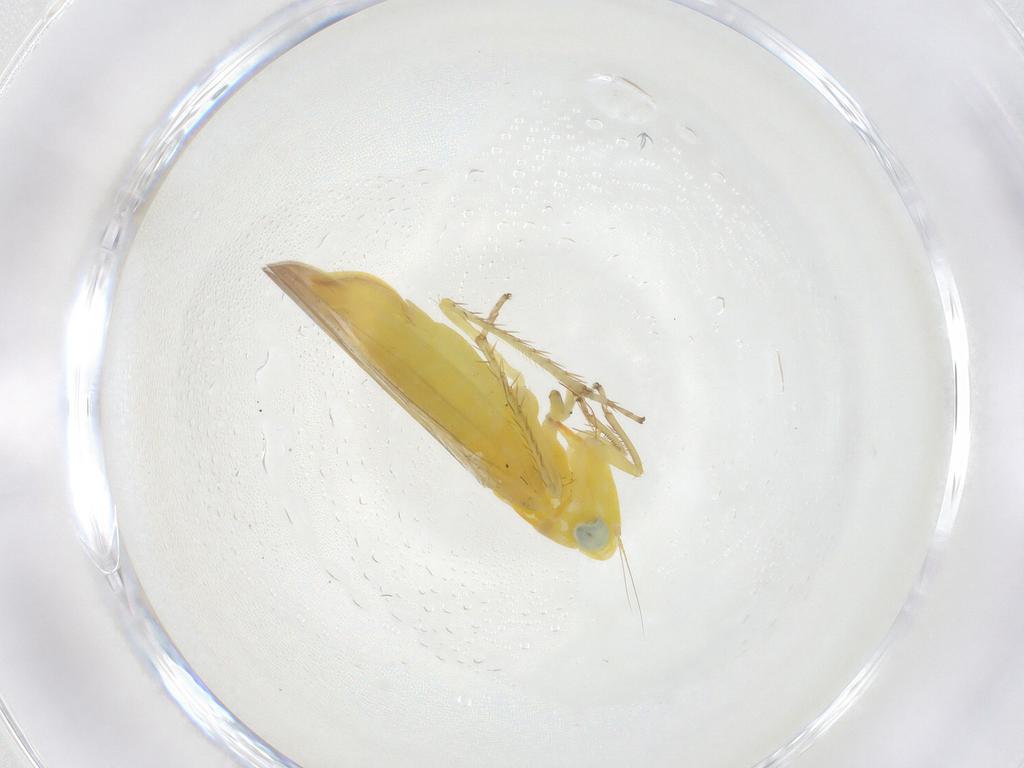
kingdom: Animalia
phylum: Arthropoda
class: Insecta
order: Hemiptera
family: Cicadellidae
